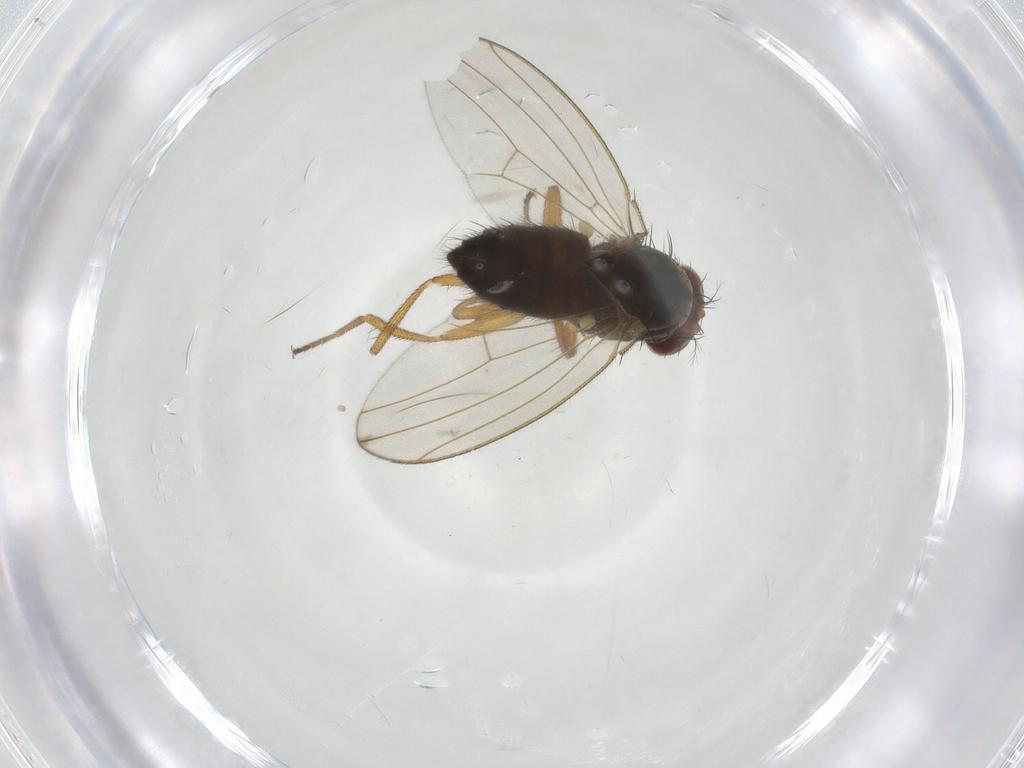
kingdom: Animalia
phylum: Arthropoda
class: Insecta
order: Diptera
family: Drosophilidae
